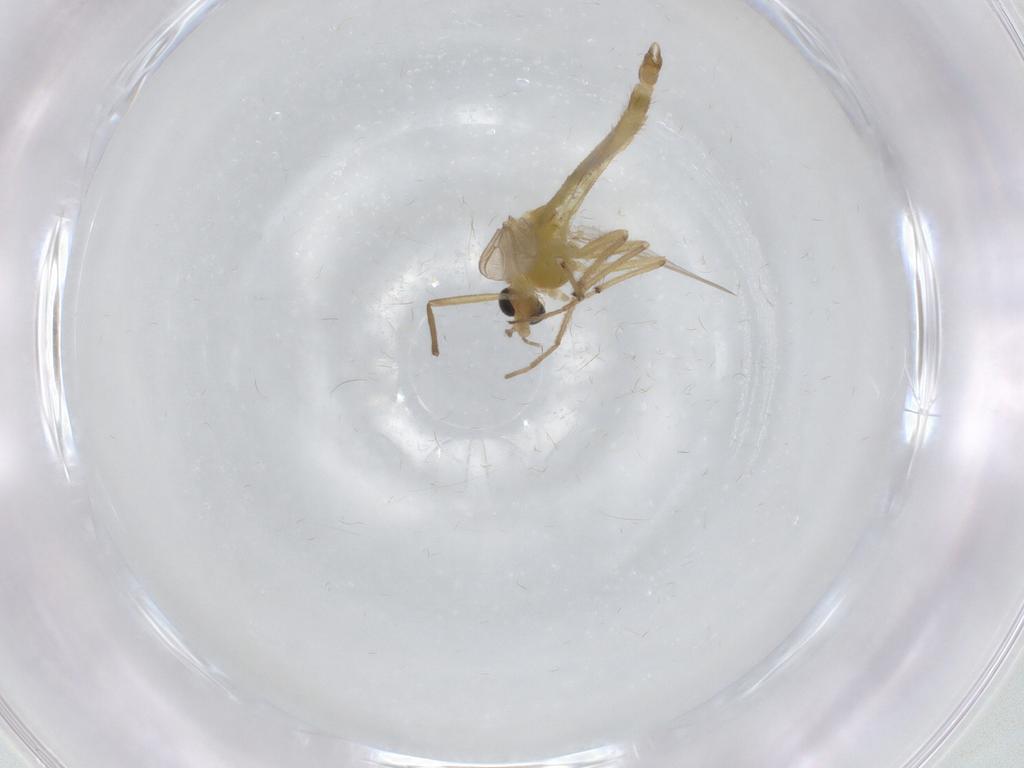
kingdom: Animalia
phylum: Arthropoda
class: Insecta
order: Diptera
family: Chironomidae
